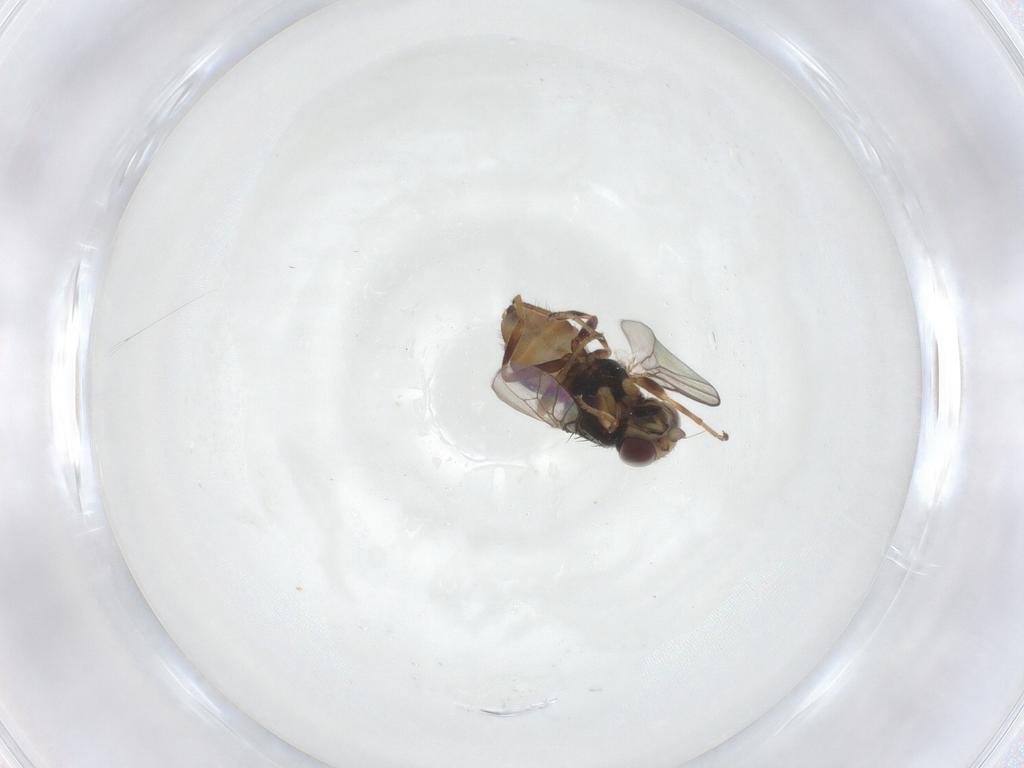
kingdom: Animalia
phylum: Arthropoda
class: Insecta
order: Diptera
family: Chloropidae
